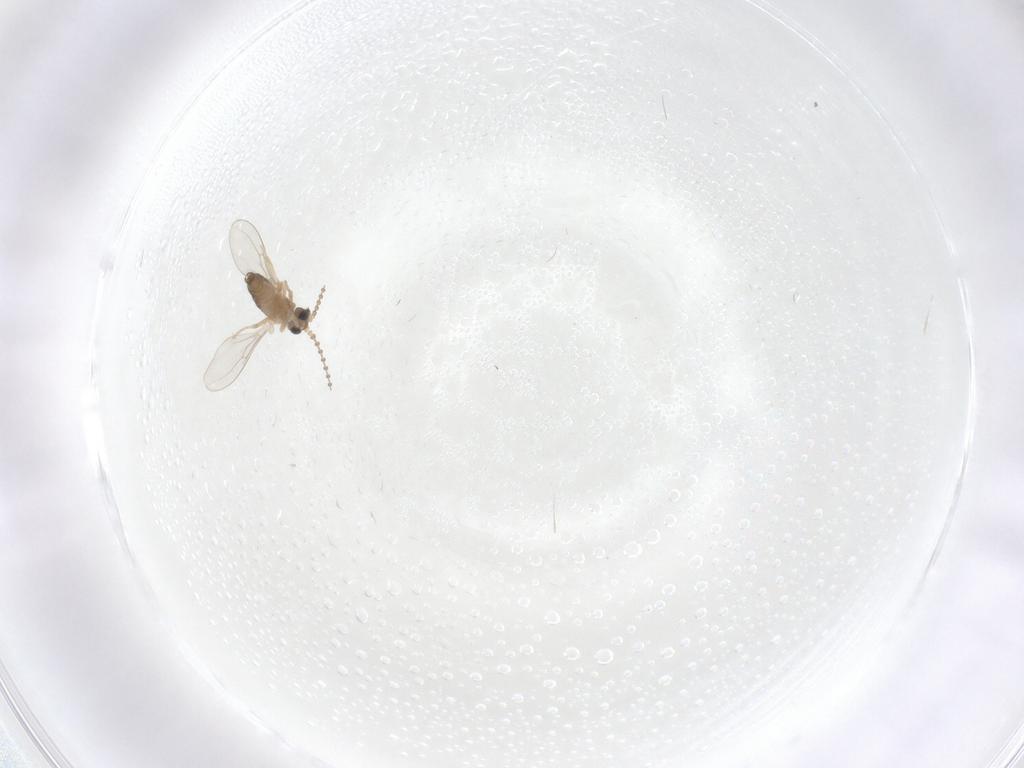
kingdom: Animalia
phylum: Arthropoda
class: Insecta
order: Diptera
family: Cecidomyiidae
